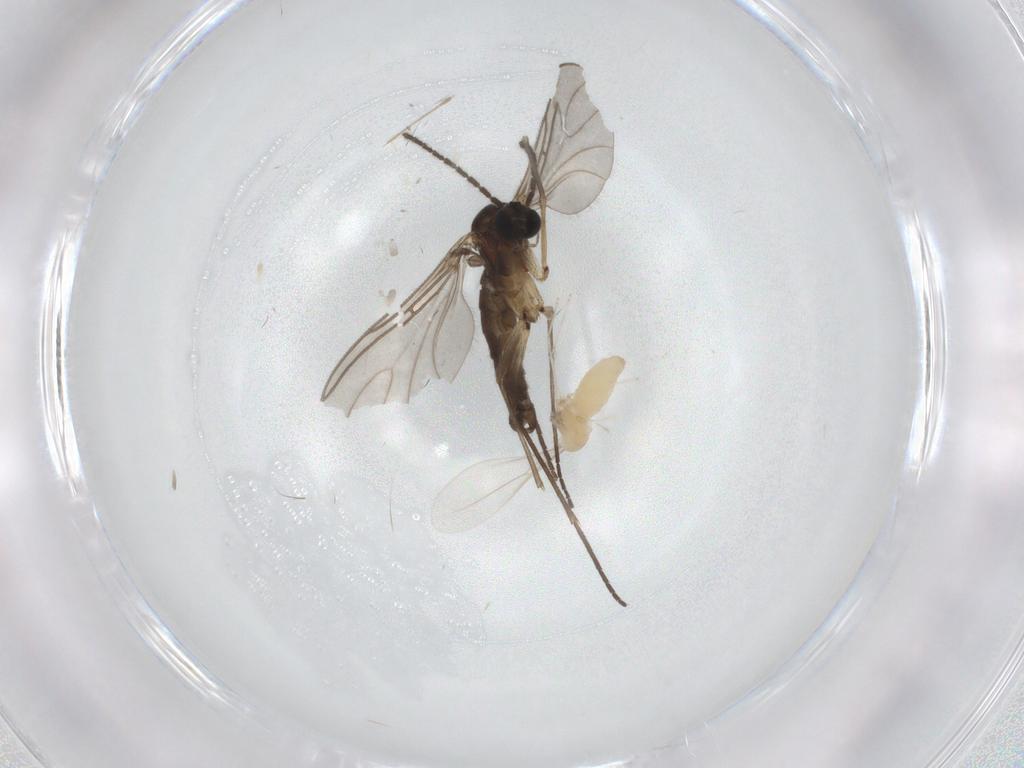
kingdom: Animalia
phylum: Arthropoda
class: Insecta
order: Diptera
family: Cecidomyiidae
